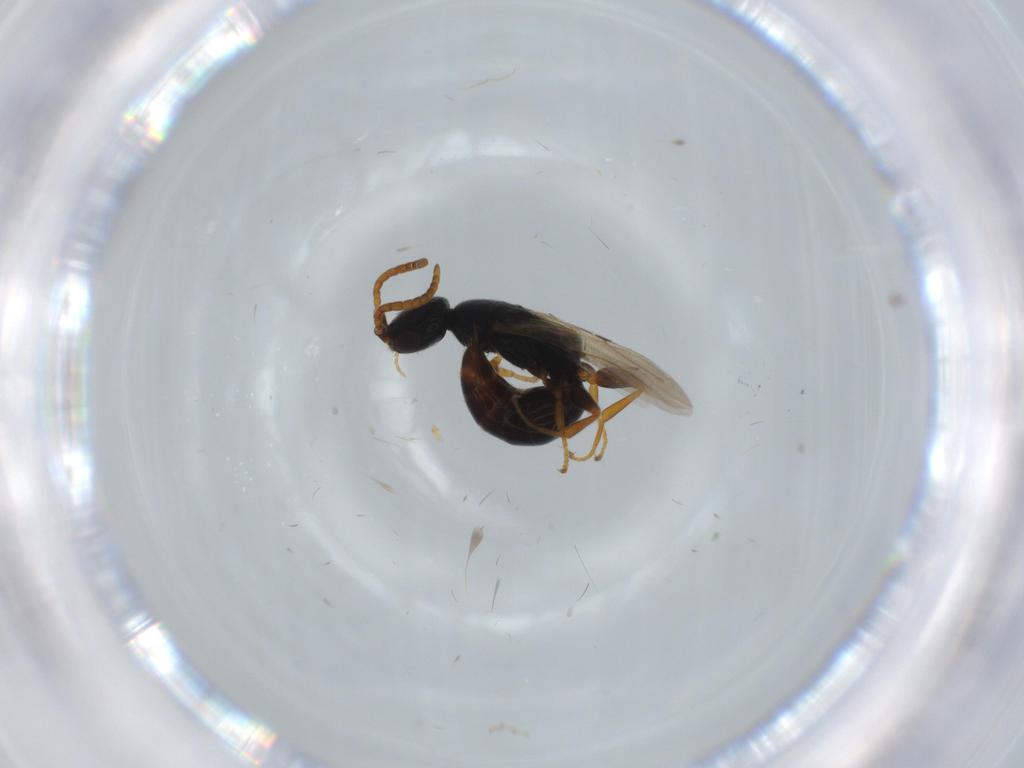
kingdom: Animalia
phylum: Arthropoda
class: Insecta
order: Hymenoptera
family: Bethylidae
